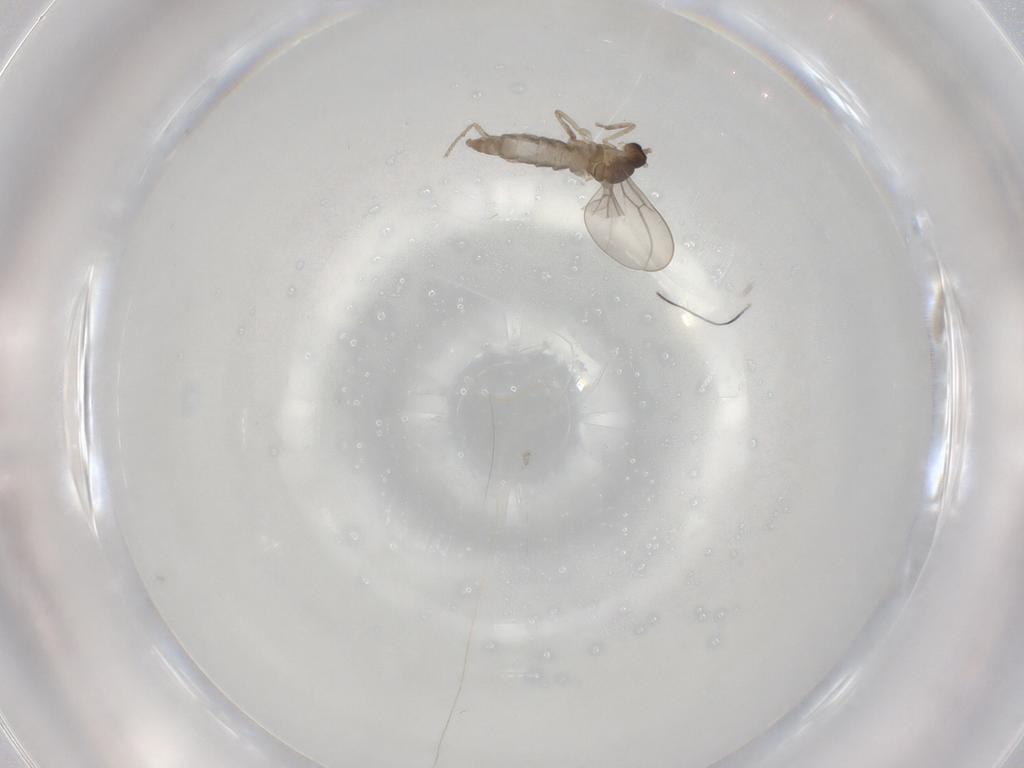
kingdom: Animalia
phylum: Arthropoda
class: Insecta
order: Diptera
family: Cecidomyiidae
